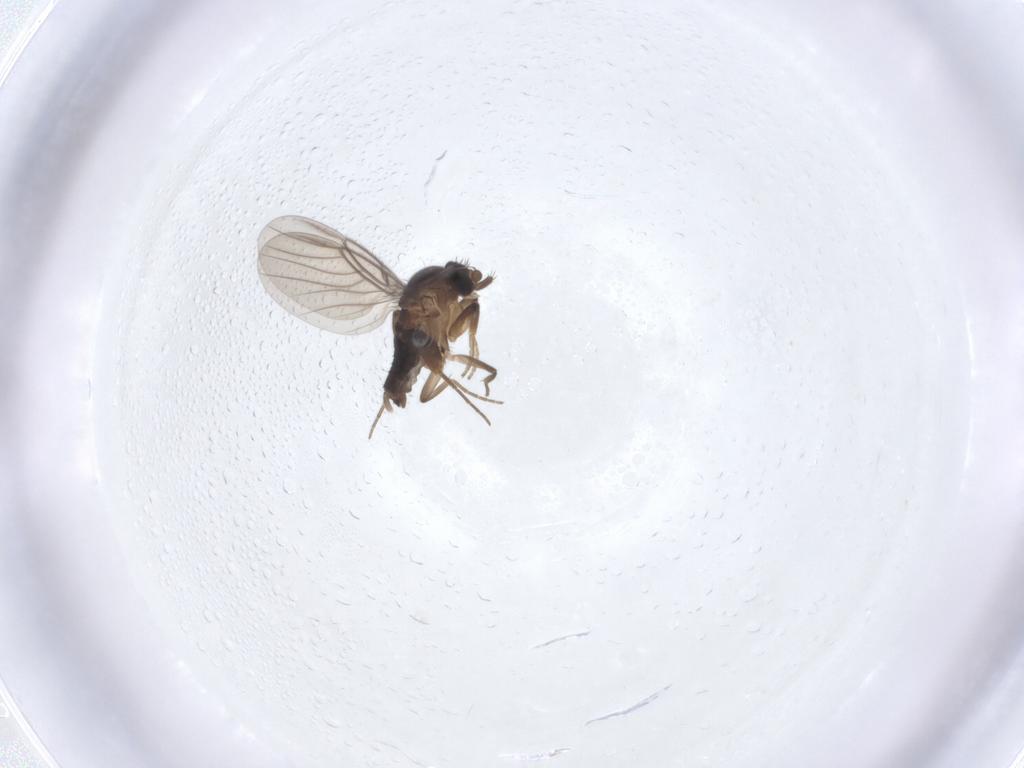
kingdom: Animalia
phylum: Arthropoda
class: Insecta
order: Diptera
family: Phoridae
